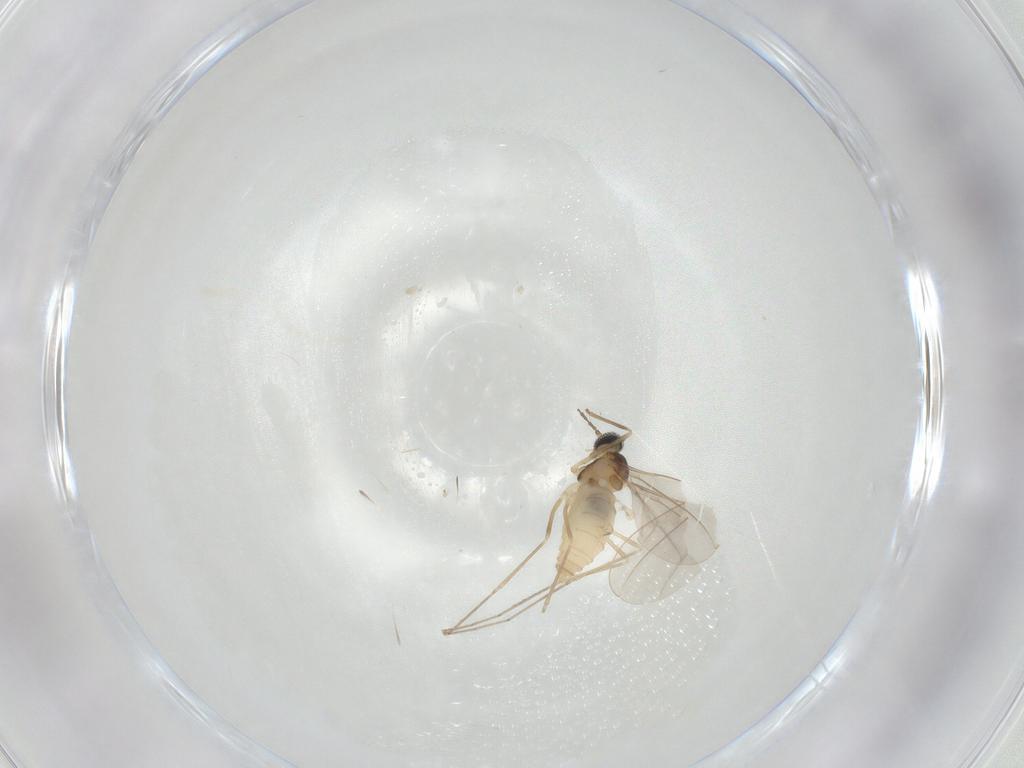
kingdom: Animalia
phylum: Arthropoda
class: Insecta
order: Diptera
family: Cecidomyiidae
